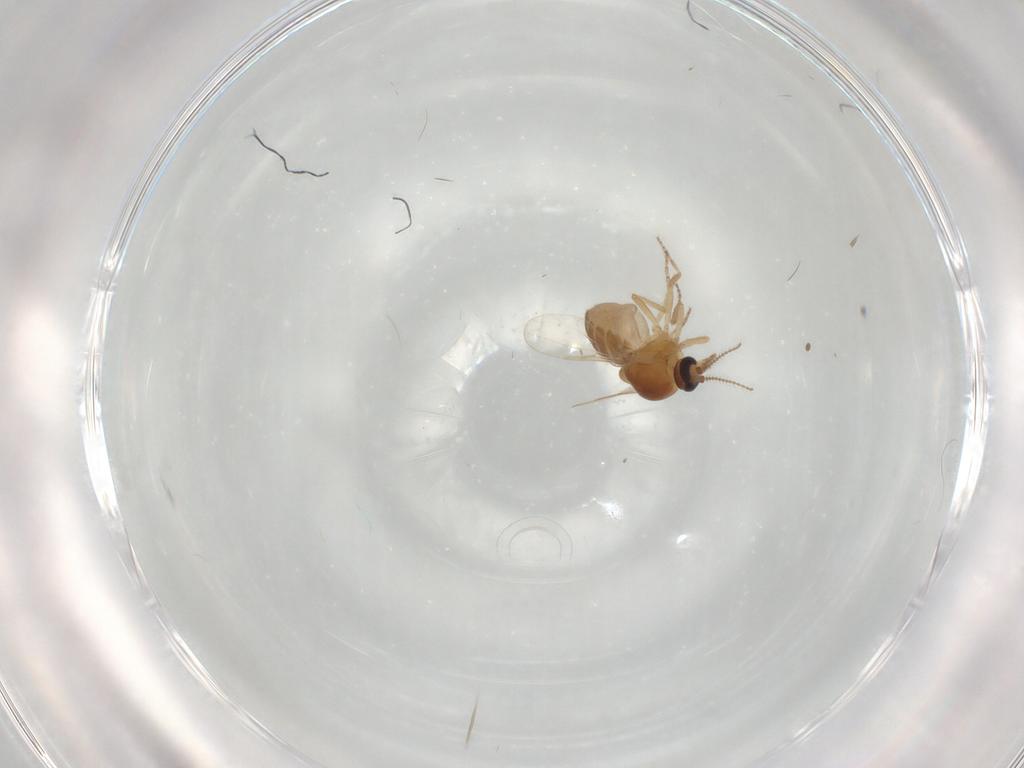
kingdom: Animalia
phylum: Arthropoda
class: Insecta
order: Diptera
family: Ceratopogonidae
